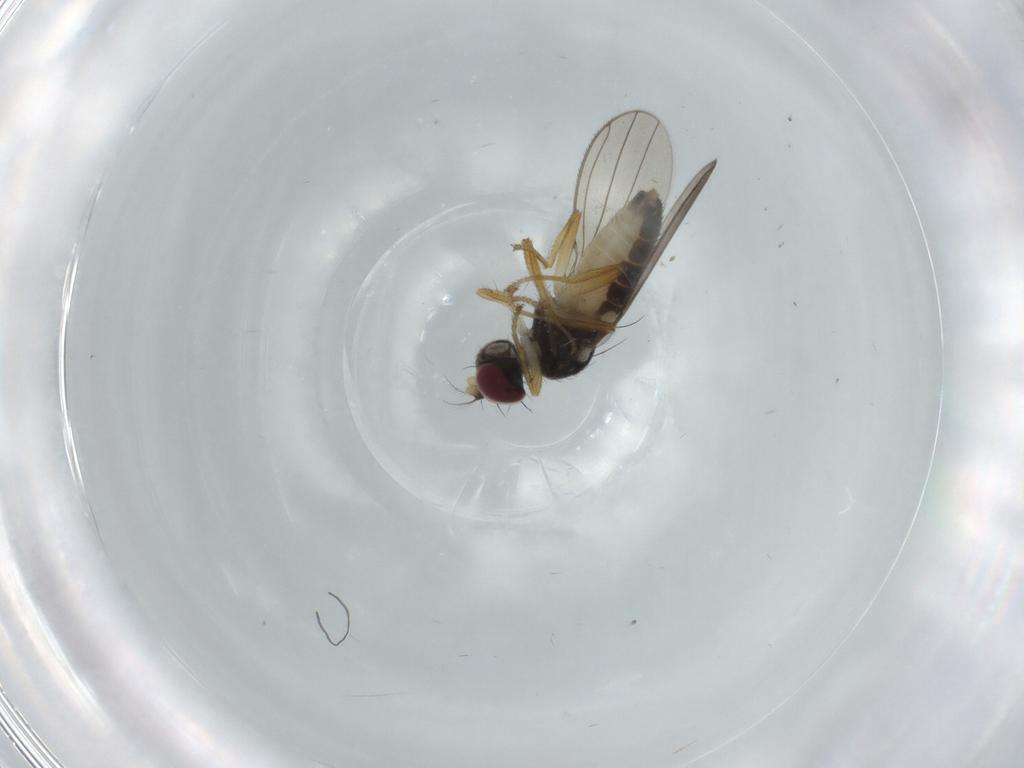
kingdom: Animalia
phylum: Arthropoda
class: Insecta
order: Diptera
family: Anthomyzidae
